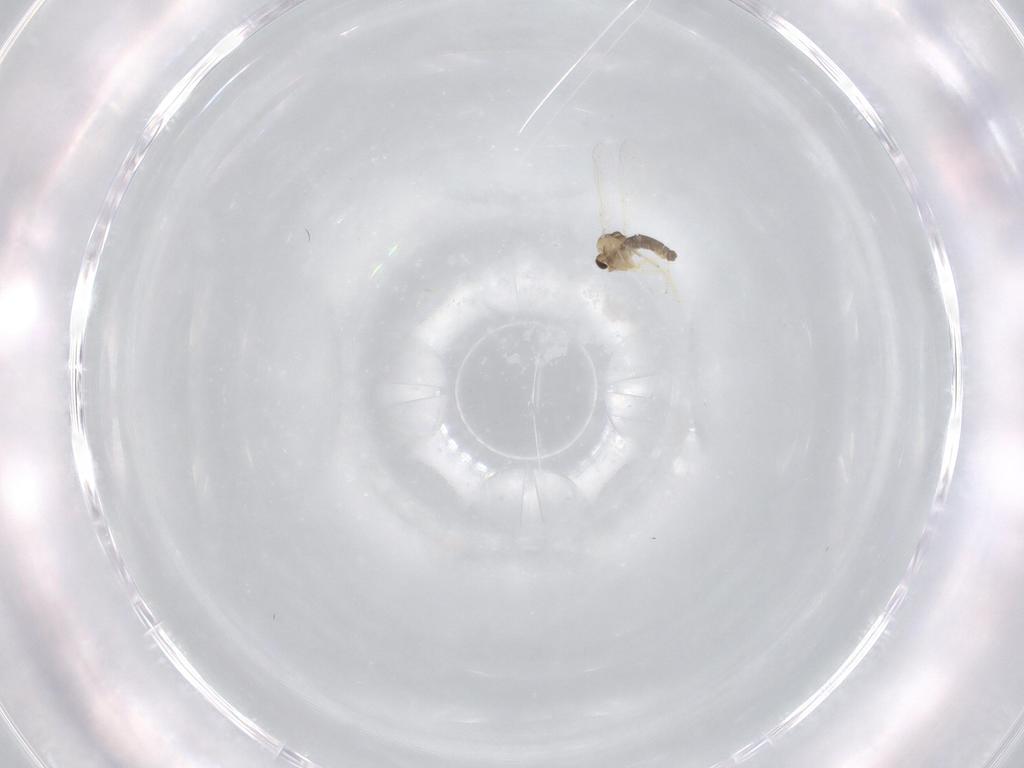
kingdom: Animalia
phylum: Arthropoda
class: Insecta
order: Diptera
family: Chironomidae
